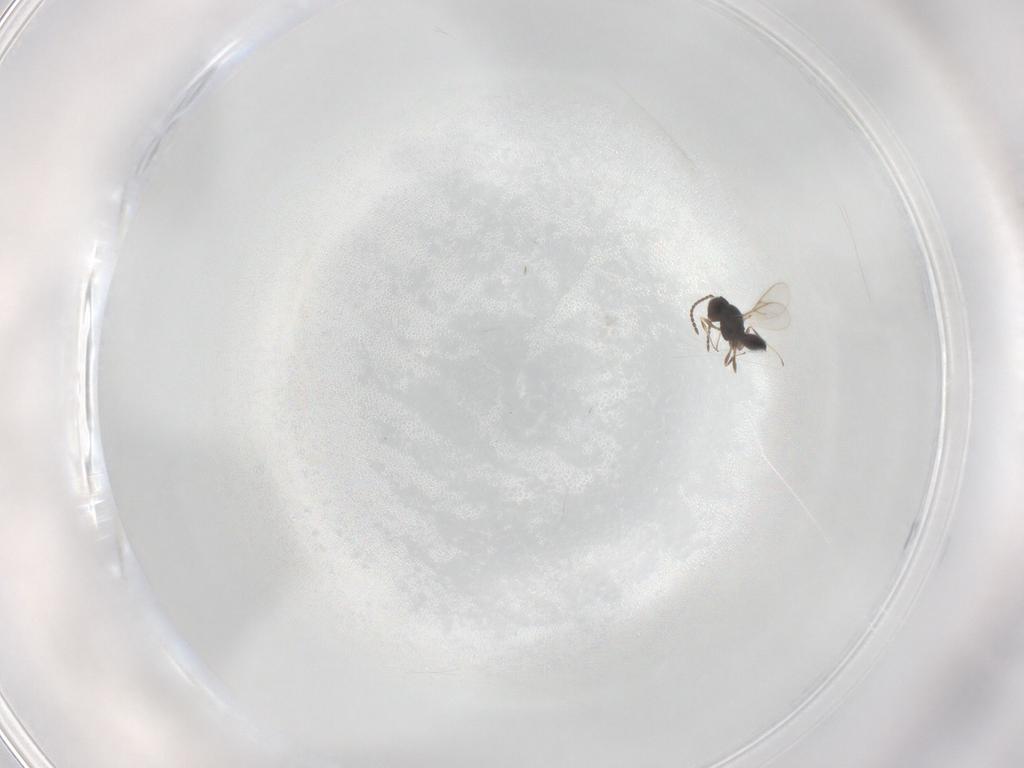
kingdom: Animalia
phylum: Arthropoda
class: Insecta
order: Hymenoptera
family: Scelionidae
